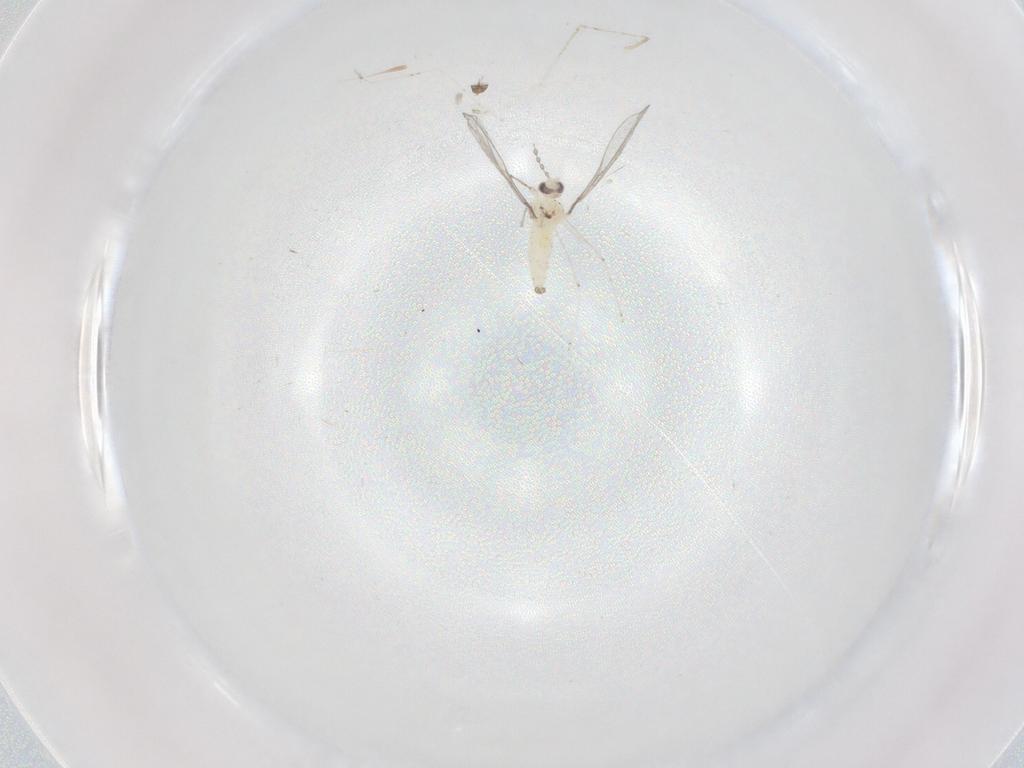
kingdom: Animalia
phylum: Arthropoda
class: Insecta
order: Diptera
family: Chironomidae
